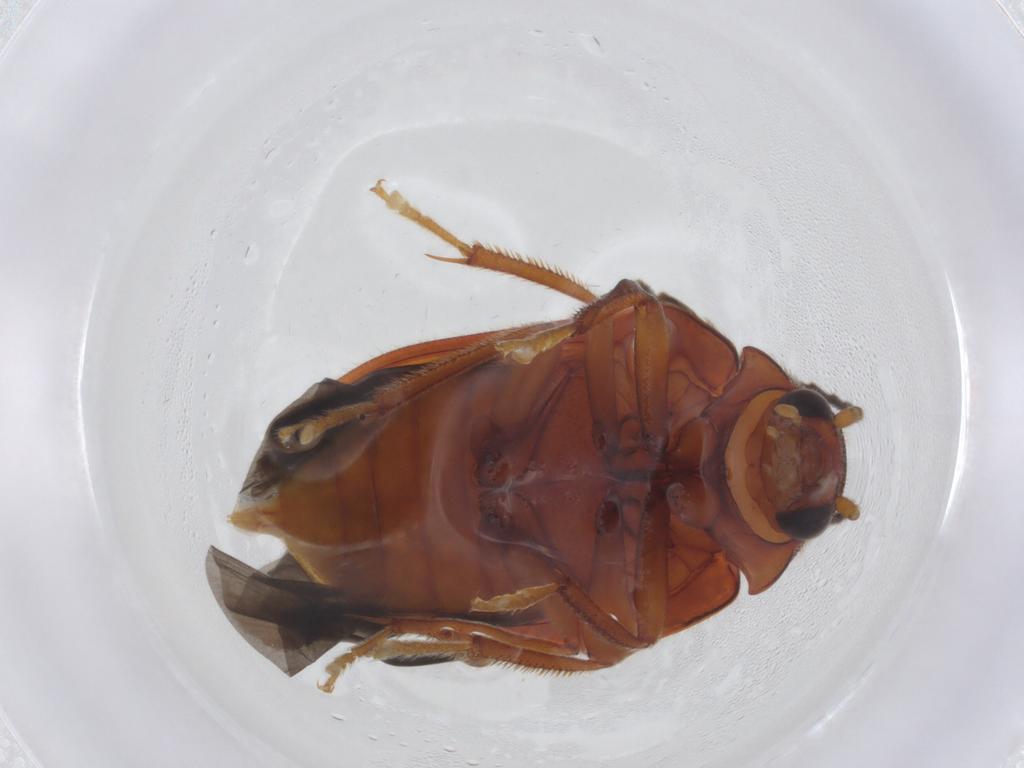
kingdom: Animalia
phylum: Arthropoda
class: Insecta
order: Coleoptera
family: Ptilodactylidae
